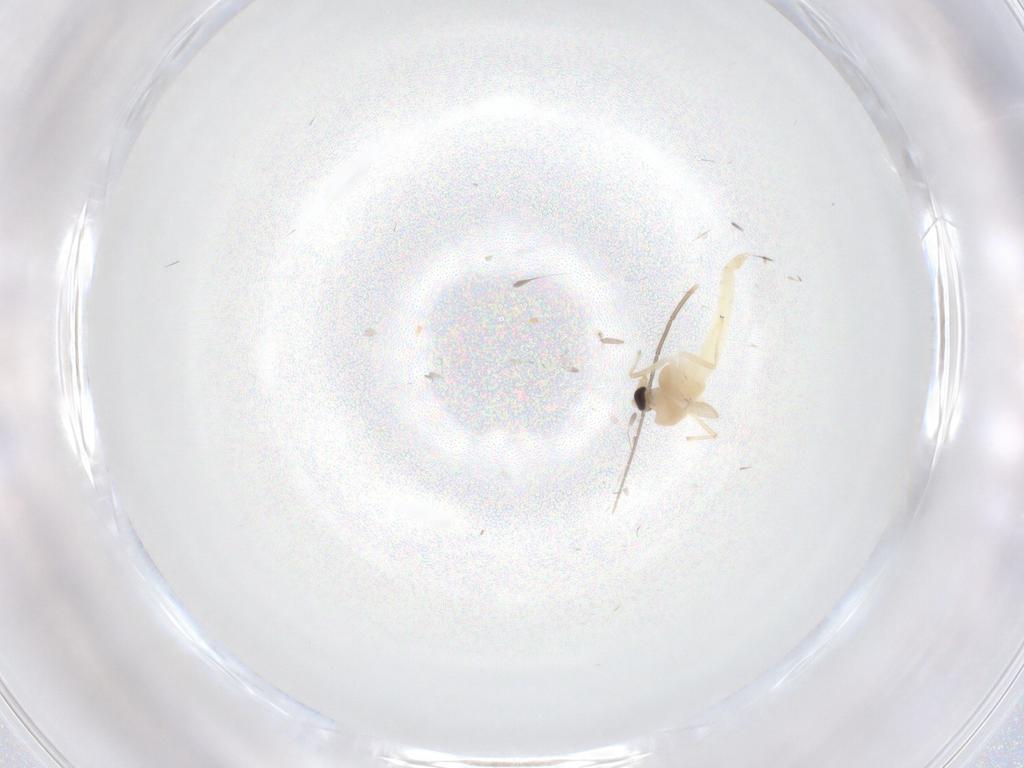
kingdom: Animalia
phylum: Arthropoda
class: Insecta
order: Diptera
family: Chironomidae
